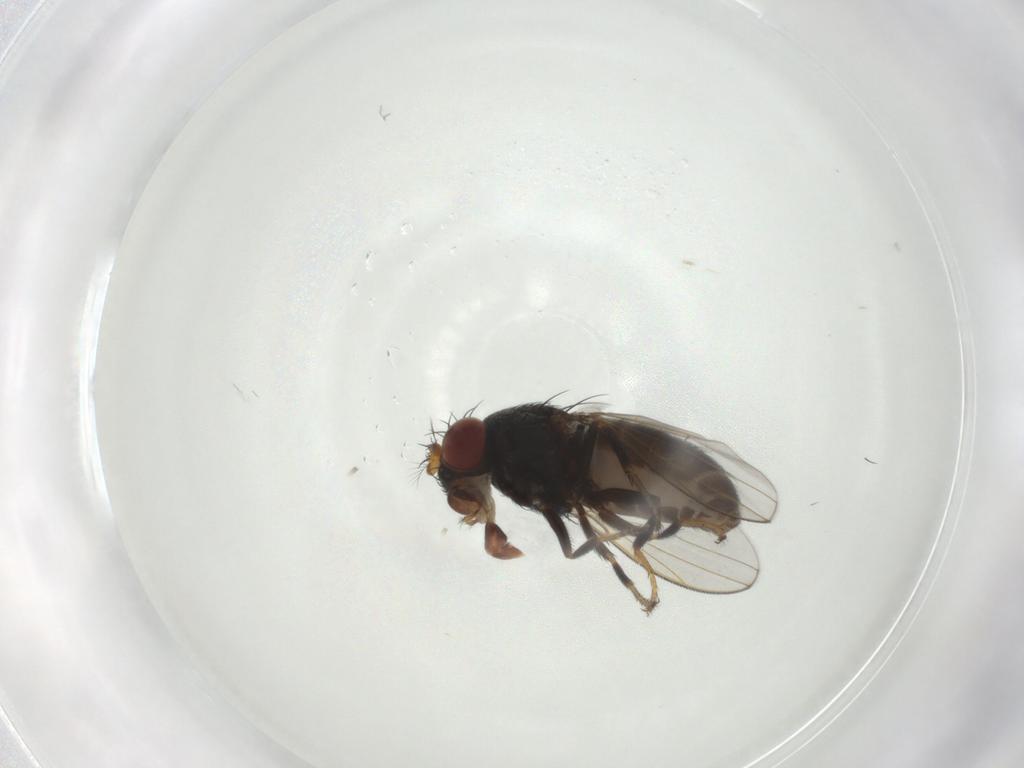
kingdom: Animalia
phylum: Arthropoda
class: Insecta
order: Diptera
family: Ephydridae
